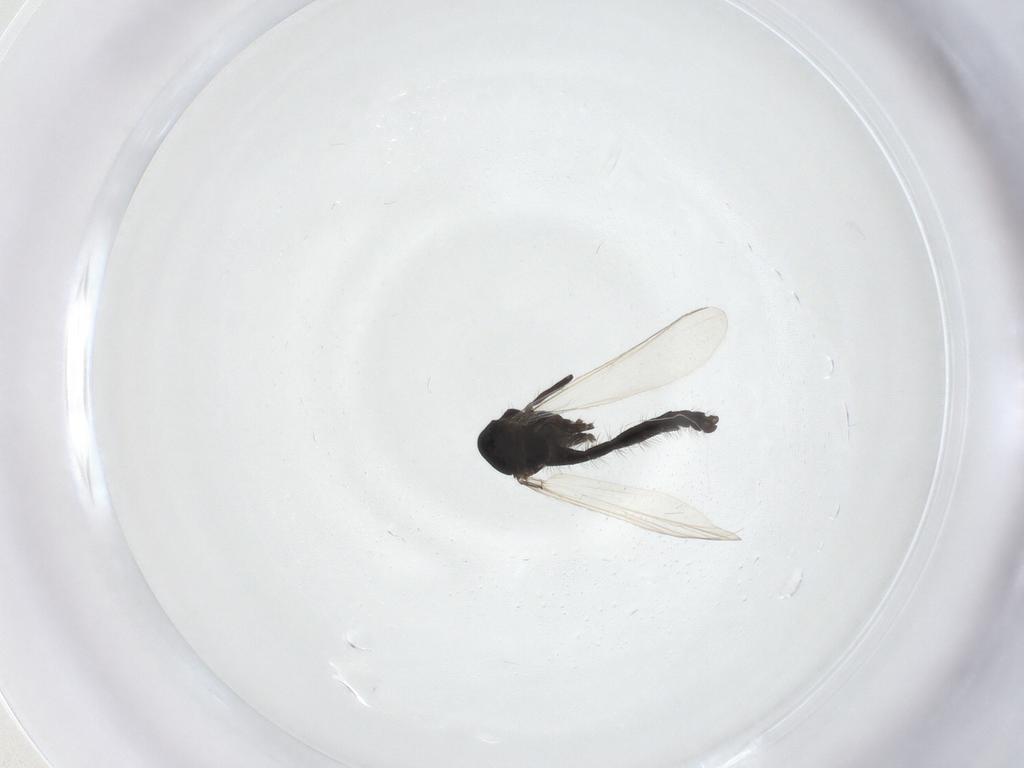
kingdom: Animalia
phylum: Arthropoda
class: Insecta
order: Diptera
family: Chironomidae
